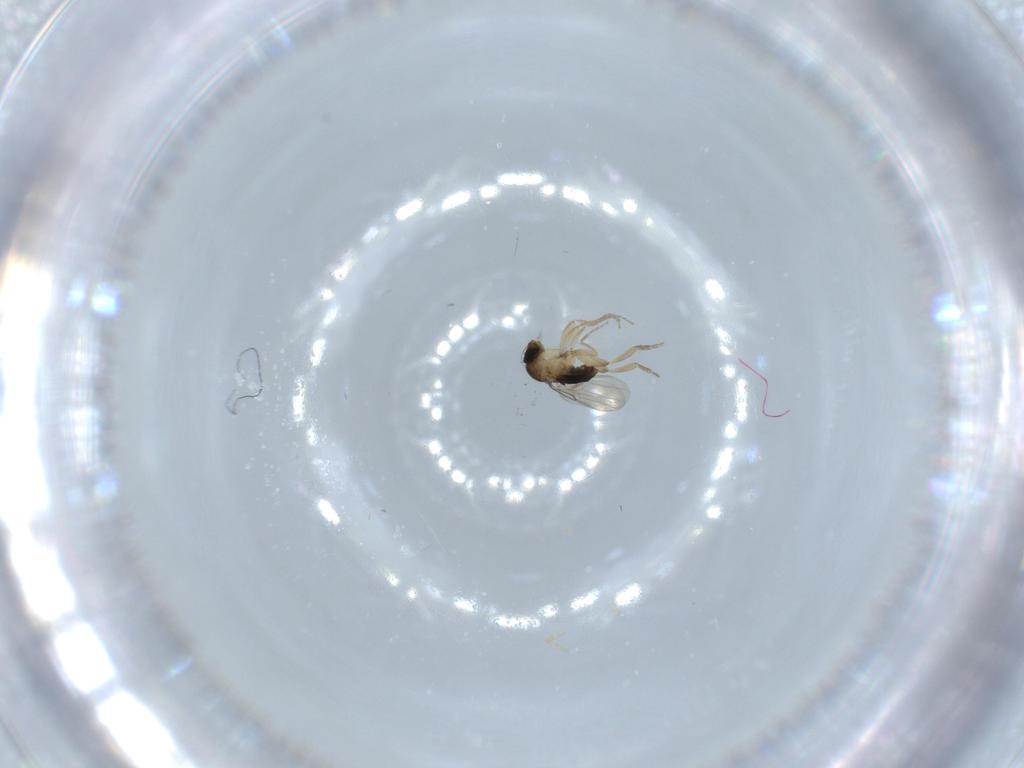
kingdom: Animalia
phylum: Arthropoda
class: Insecta
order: Diptera
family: Phoridae
